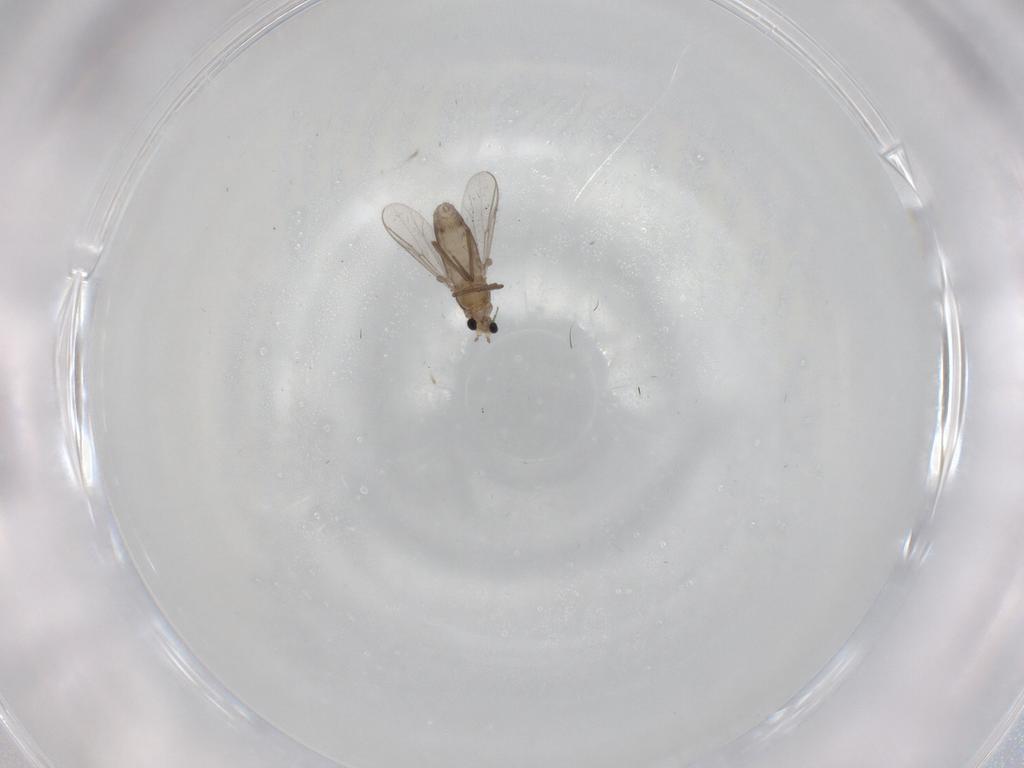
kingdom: Animalia
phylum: Arthropoda
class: Insecta
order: Diptera
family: Chironomidae
